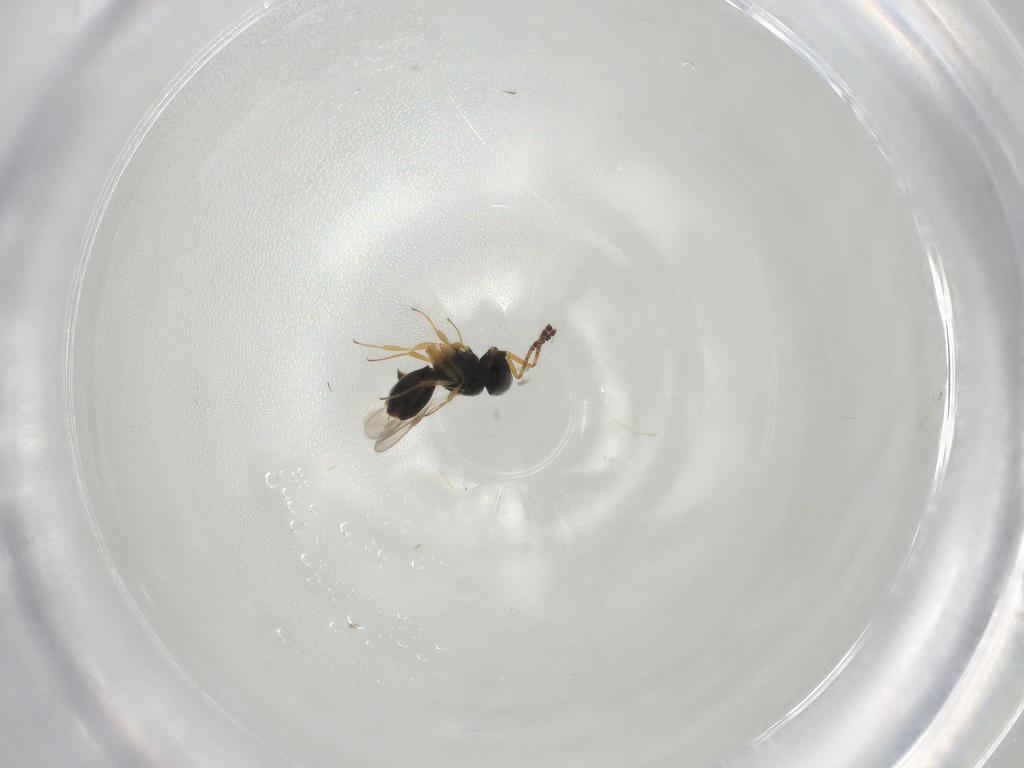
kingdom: Animalia
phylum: Arthropoda
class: Insecta
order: Hymenoptera
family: Scelionidae
